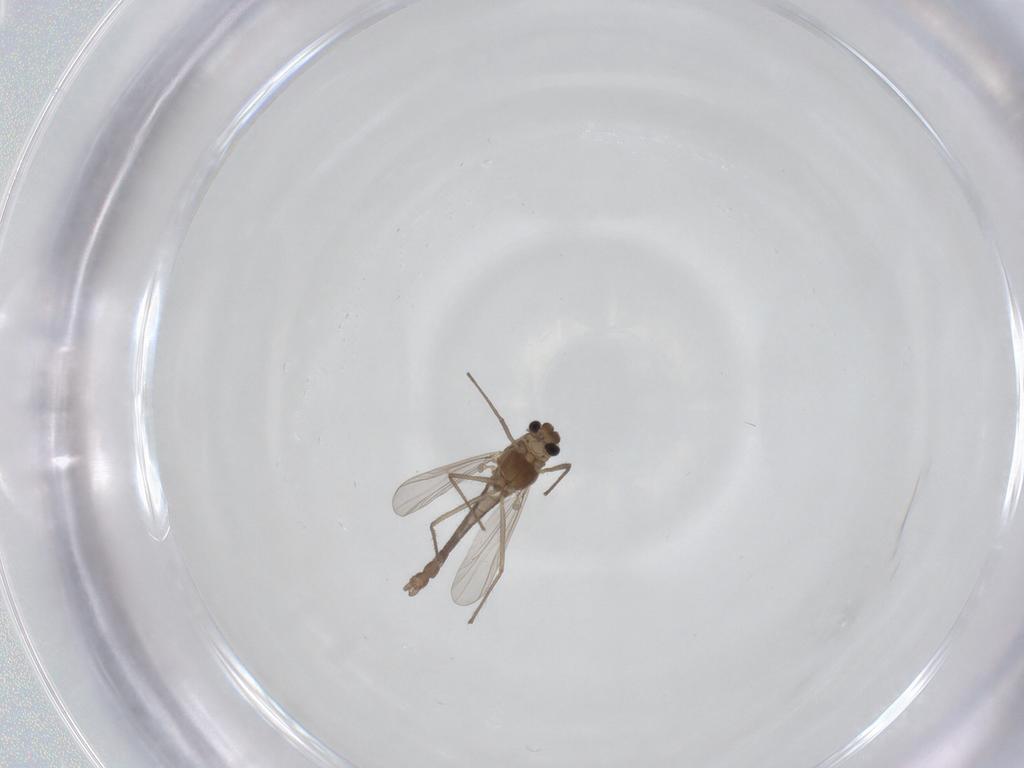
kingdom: Animalia
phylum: Arthropoda
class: Insecta
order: Diptera
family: Chironomidae
